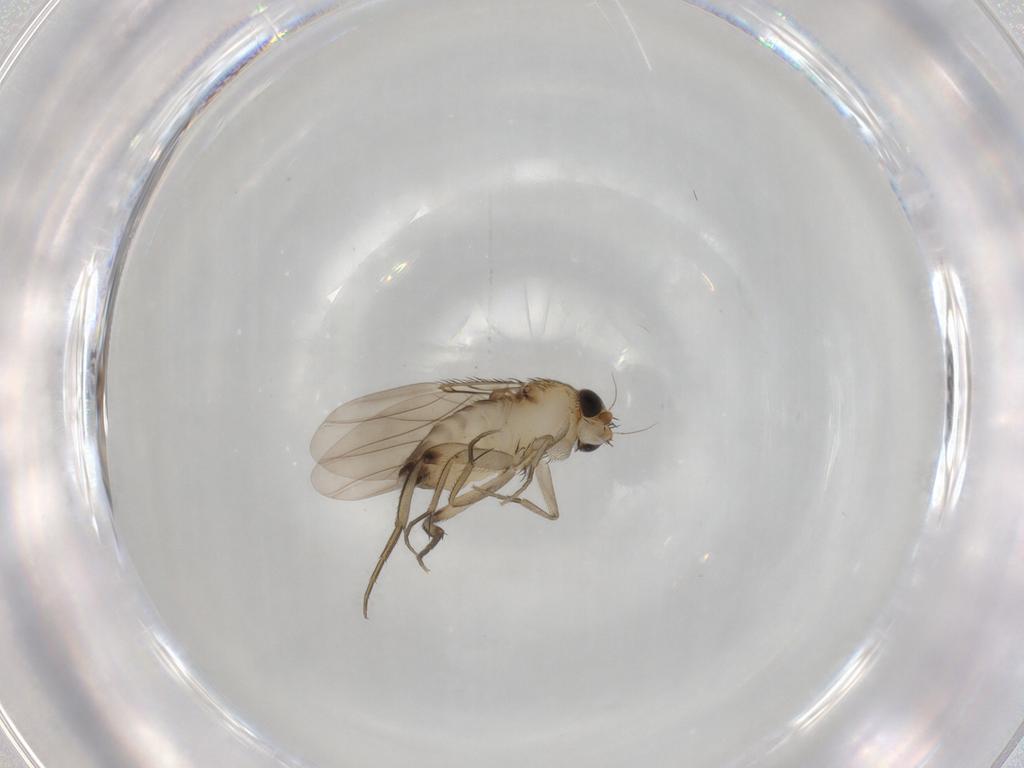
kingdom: Animalia
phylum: Arthropoda
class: Insecta
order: Diptera
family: Phoridae
